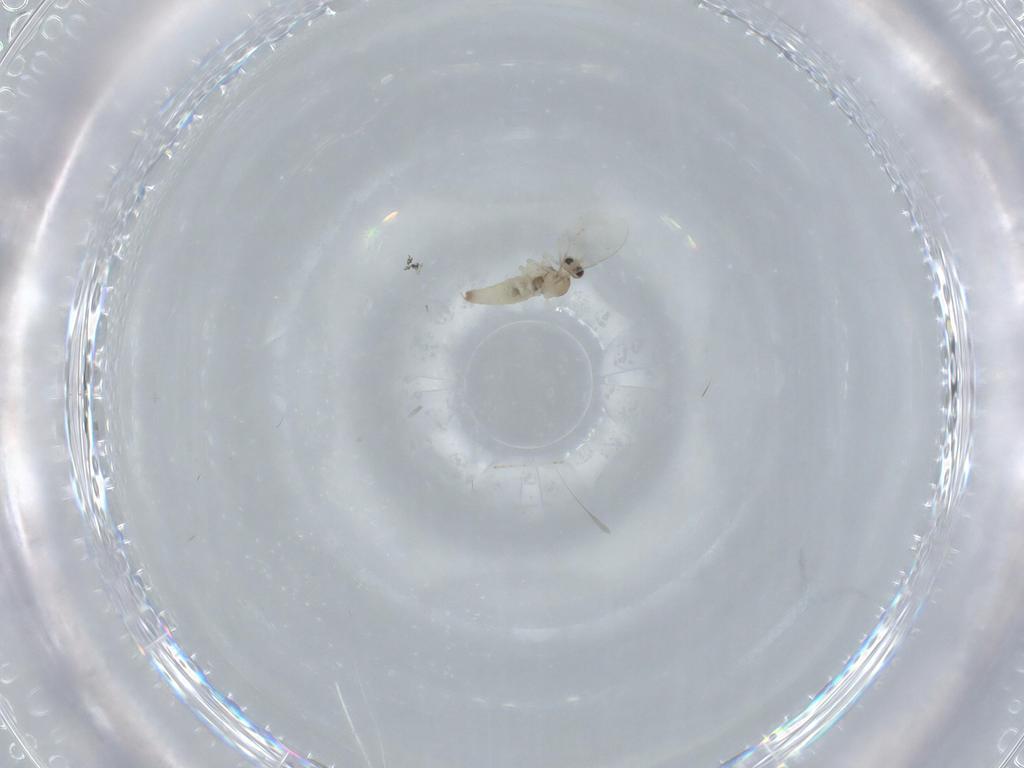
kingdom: Animalia
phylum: Arthropoda
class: Insecta
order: Diptera
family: Cecidomyiidae
